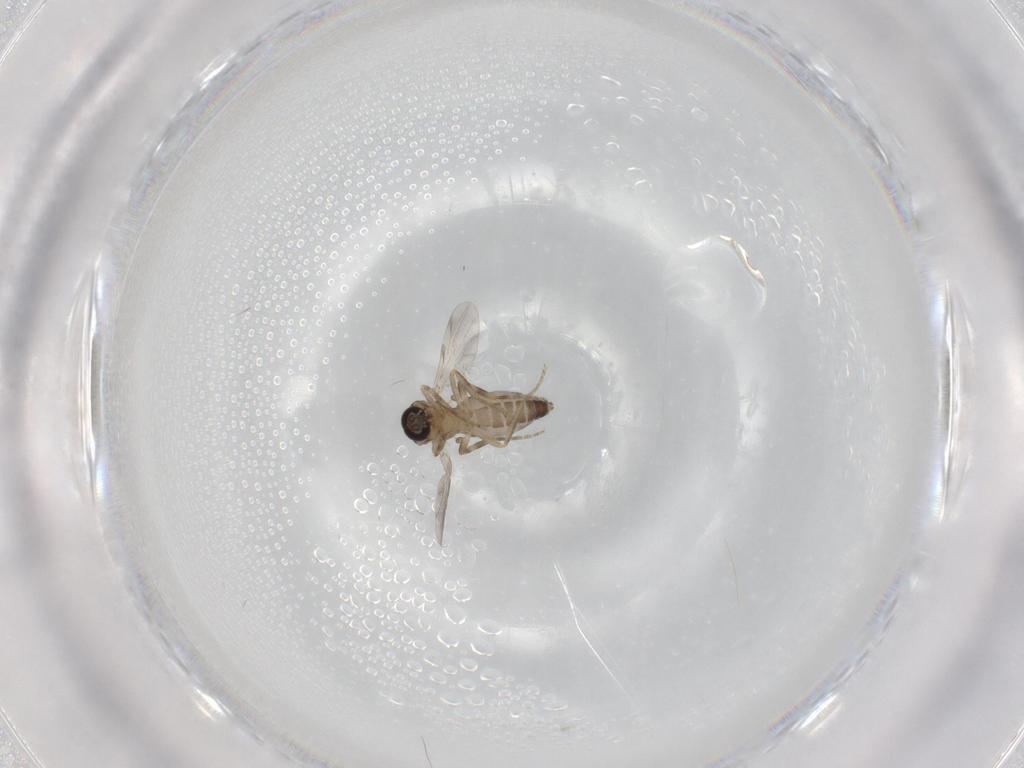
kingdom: Animalia
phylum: Arthropoda
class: Insecta
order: Diptera
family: Ceratopogonidae
